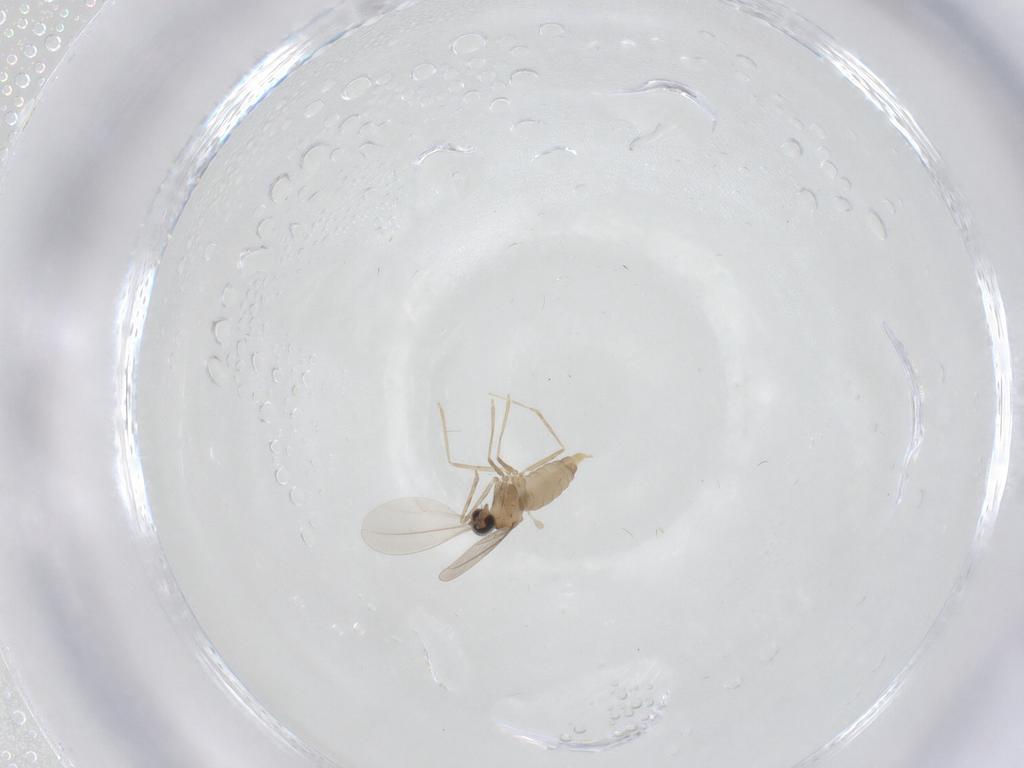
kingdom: Animalia
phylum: Arthropoda
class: Insecta
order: Diptera
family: Cecidomyiidae
